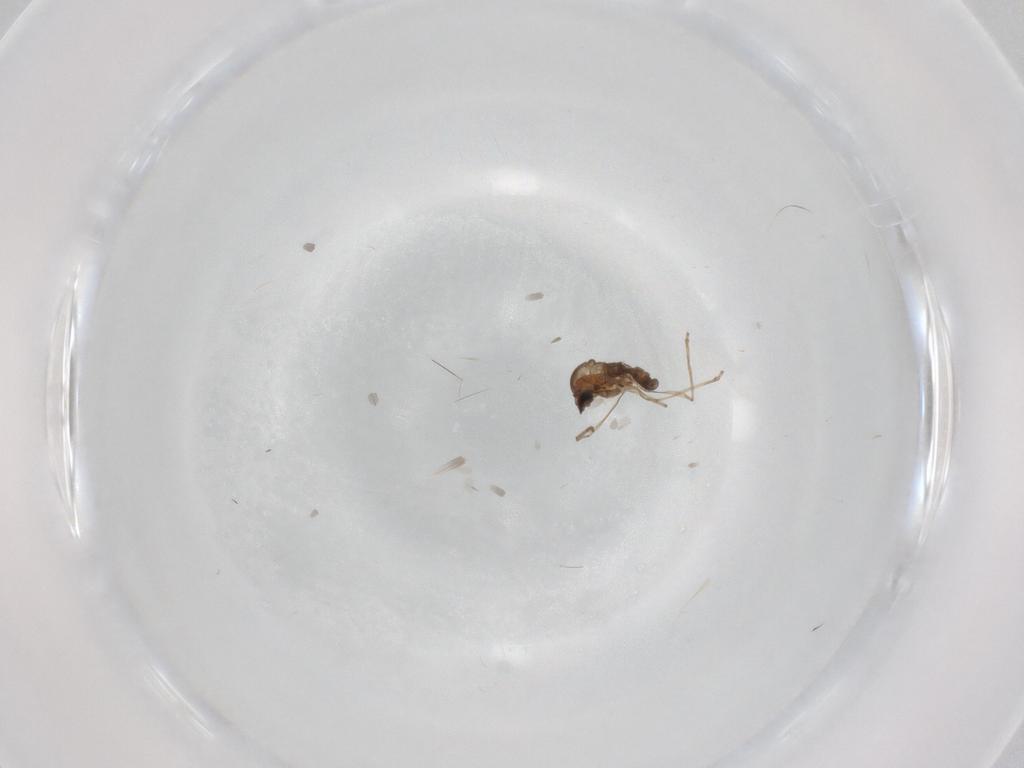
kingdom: Animalia
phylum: Arthropoda
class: Insecta
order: Diptera
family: Cecidomyiidae
